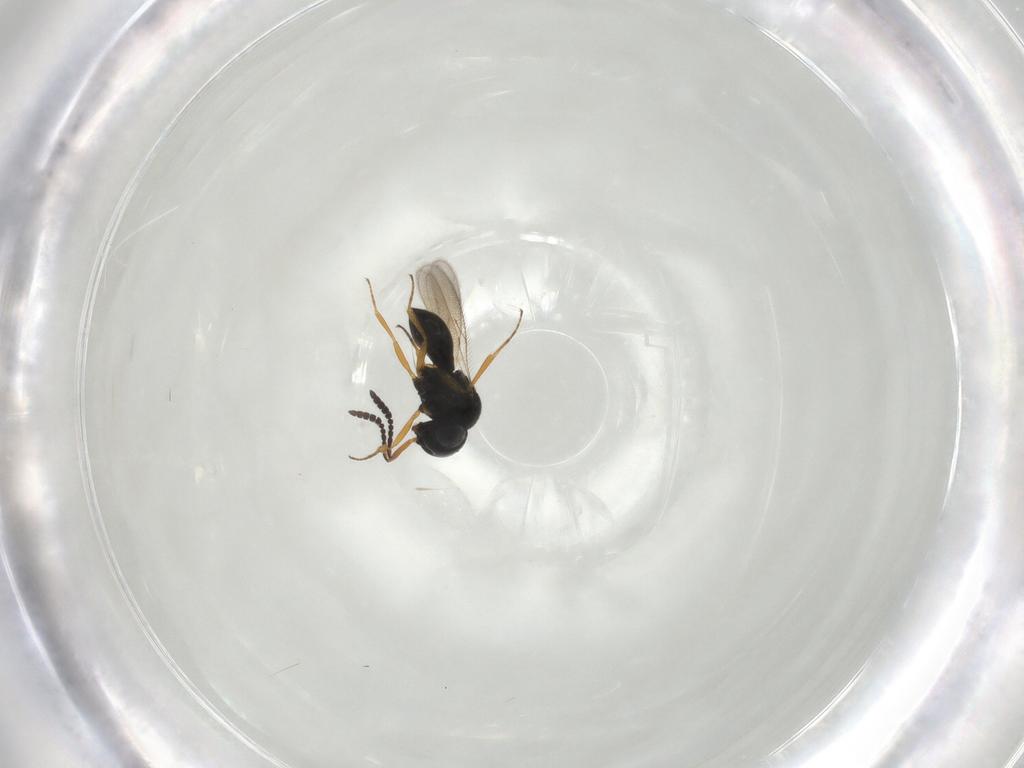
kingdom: Animalia
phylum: Arthropoda
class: Insecta
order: Hymenoptera
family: Scelionidae
